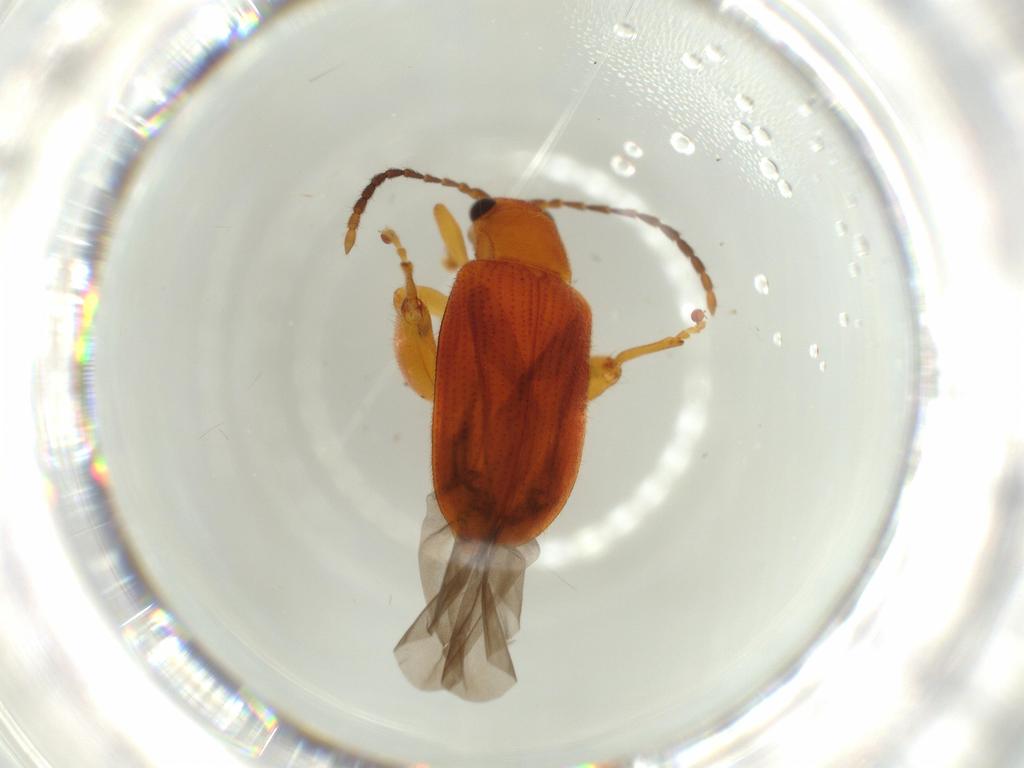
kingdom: Animalia
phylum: Arthropoda
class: Insecta
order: Coleoptera
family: Chrysomelidae
